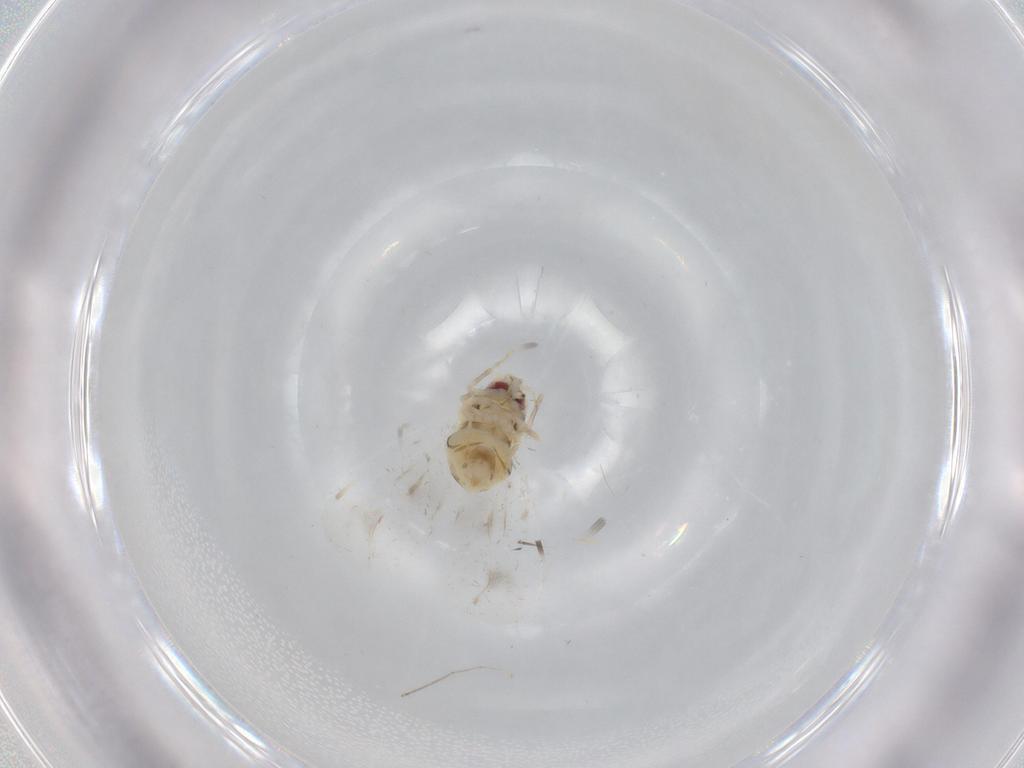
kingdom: Animalia
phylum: Arthropoda
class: Insecta
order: Hemiptera
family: Aleyrodidae
